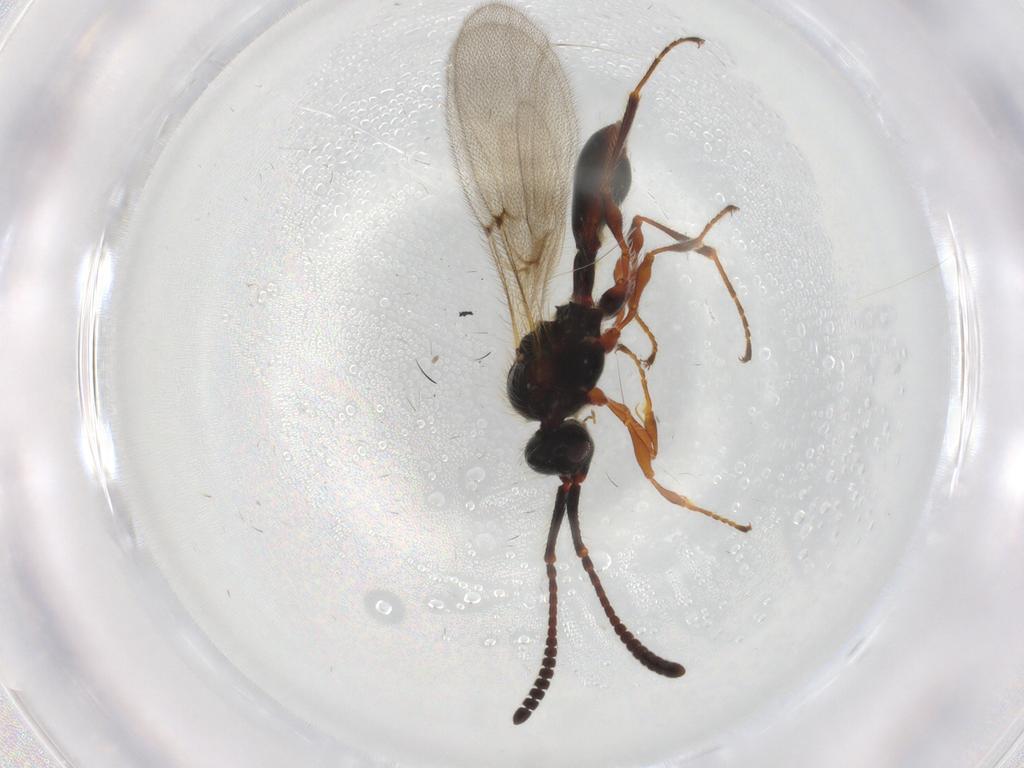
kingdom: Animalia
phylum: Arthropoda
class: Insecta
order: Hymenoptera
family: Diapriidae
